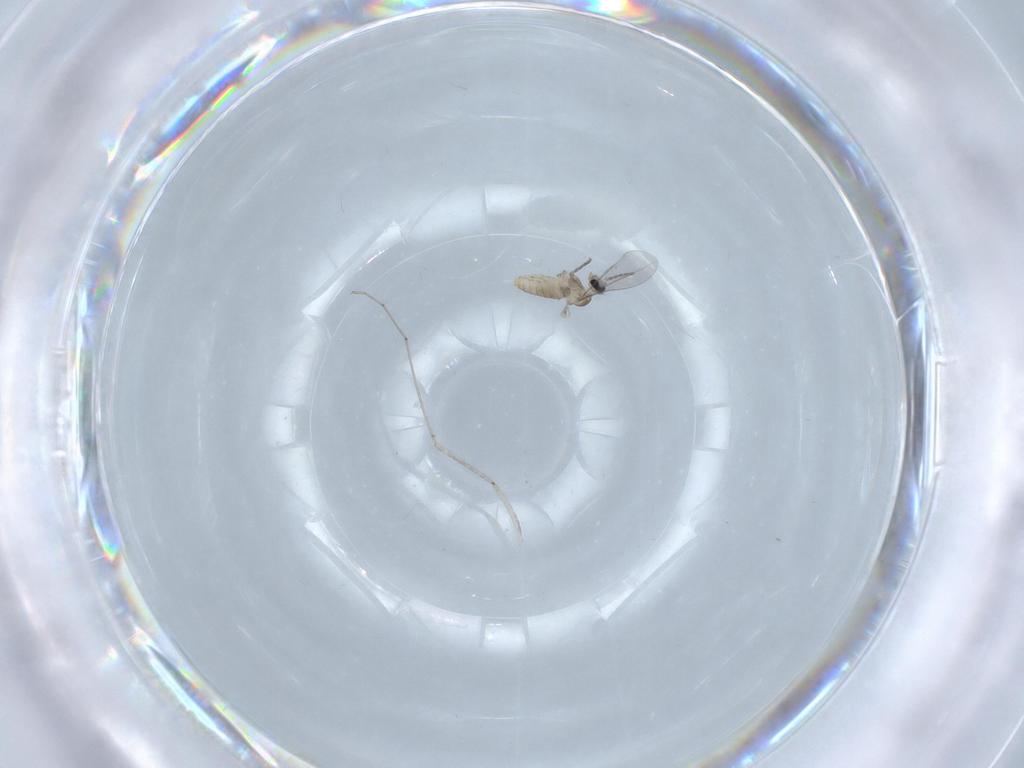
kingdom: Animalia
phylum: Arthropoda
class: Insecta
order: Diptera
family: Cecidomyiidae
